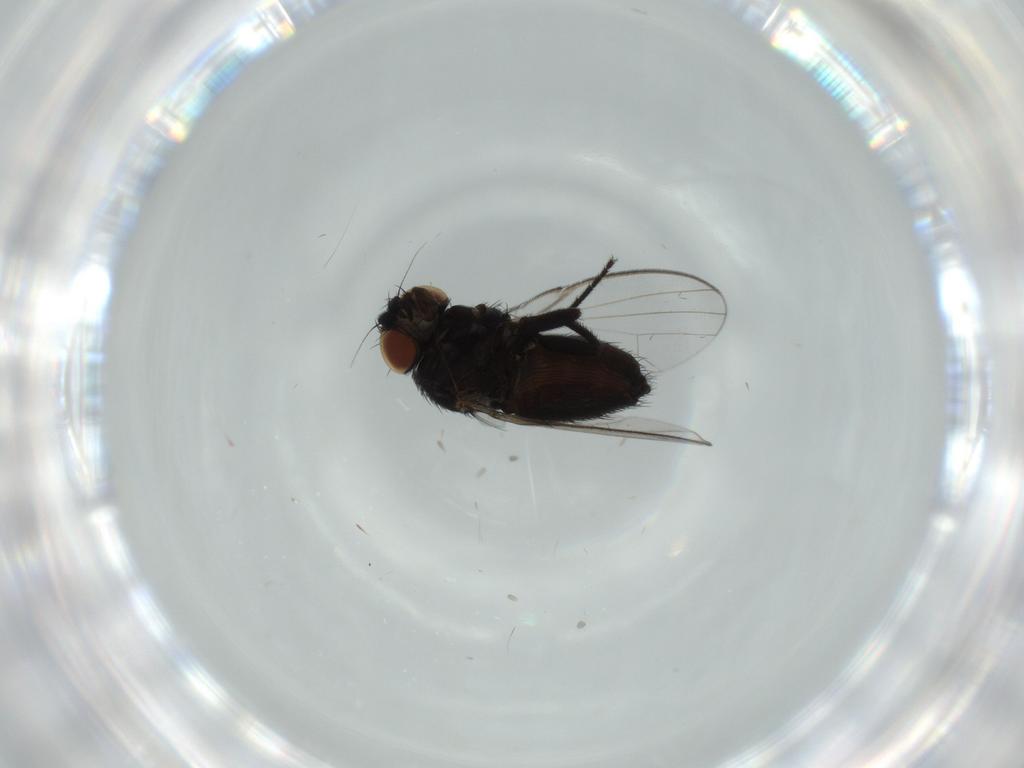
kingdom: Animalia
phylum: Arthropoda
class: Insecta
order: Diptera
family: Milichiidae
